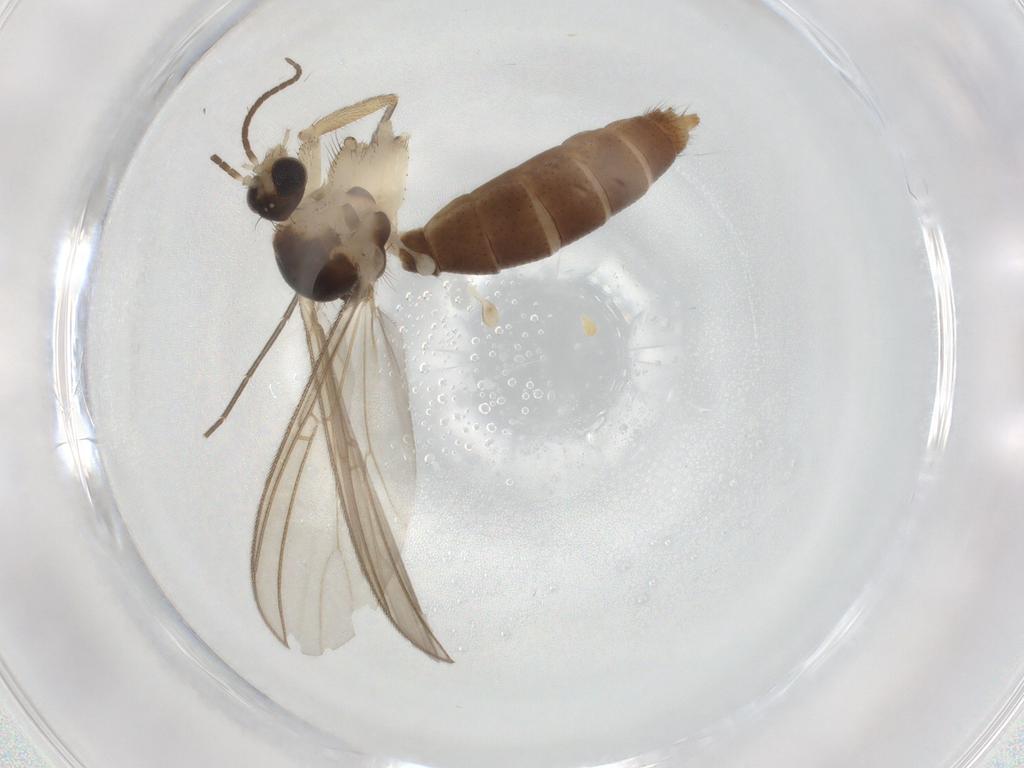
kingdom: Animalia
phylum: Arthropoda
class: Insecta
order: Diptera
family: Mycetophilidae
